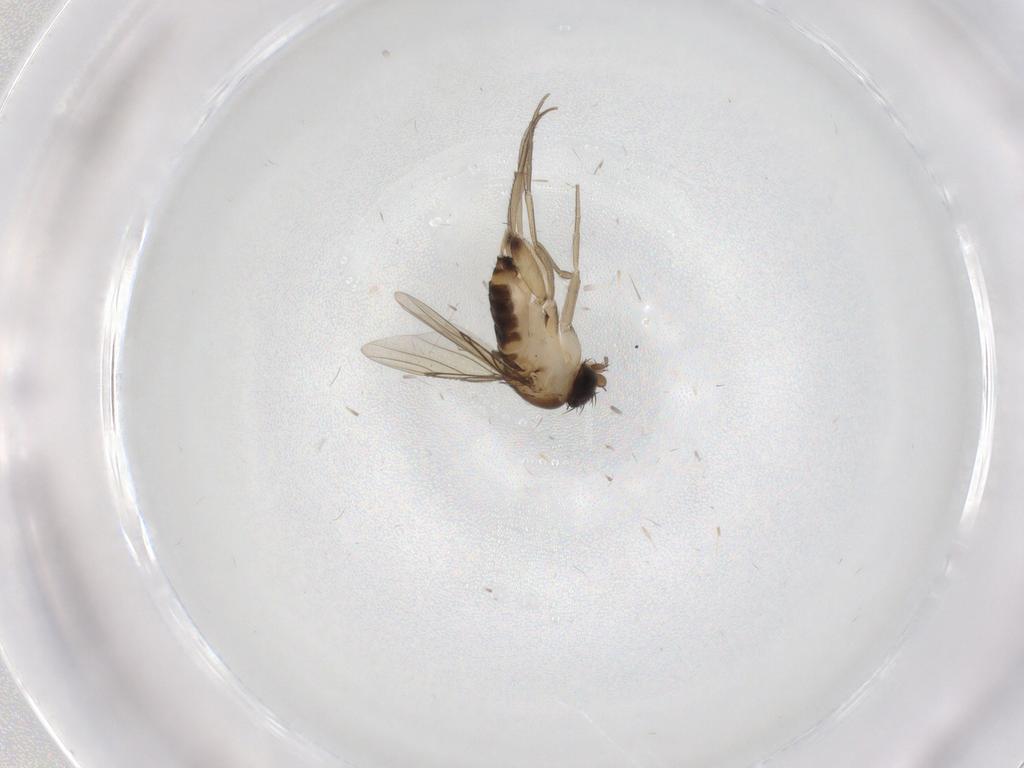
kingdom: Animalia
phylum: Arthropoda
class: Insecta
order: Diptera
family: Phoridae
